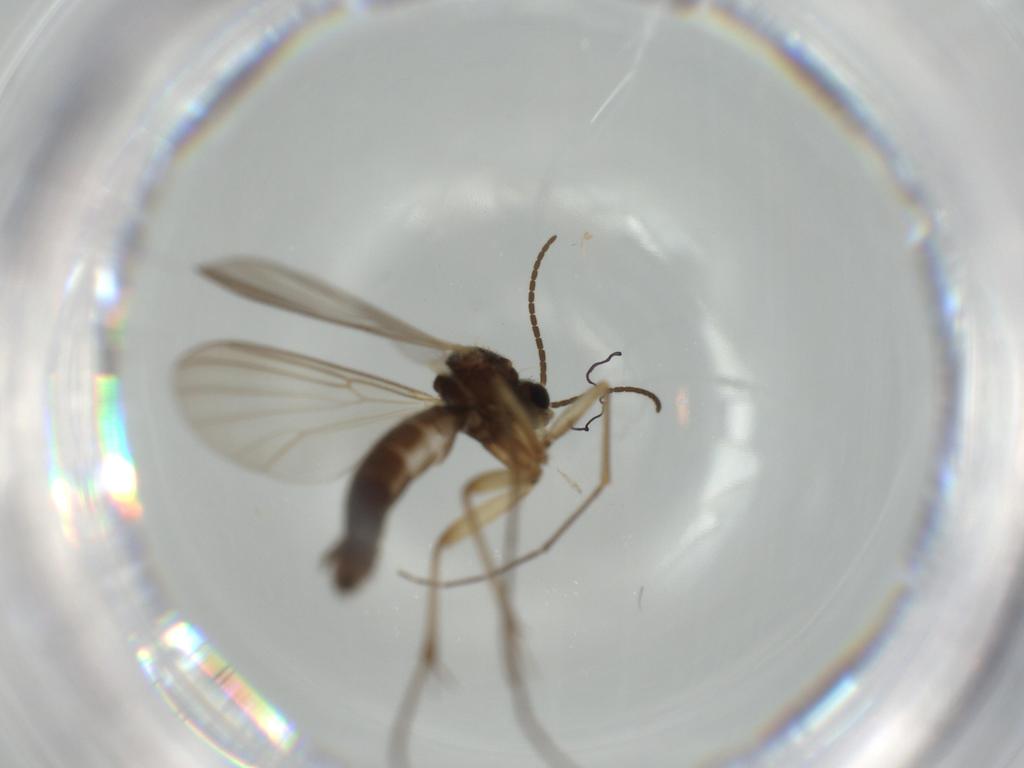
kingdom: Animalia
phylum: Arthropoda
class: Insecta
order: Diptera
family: Mycetophilidae
